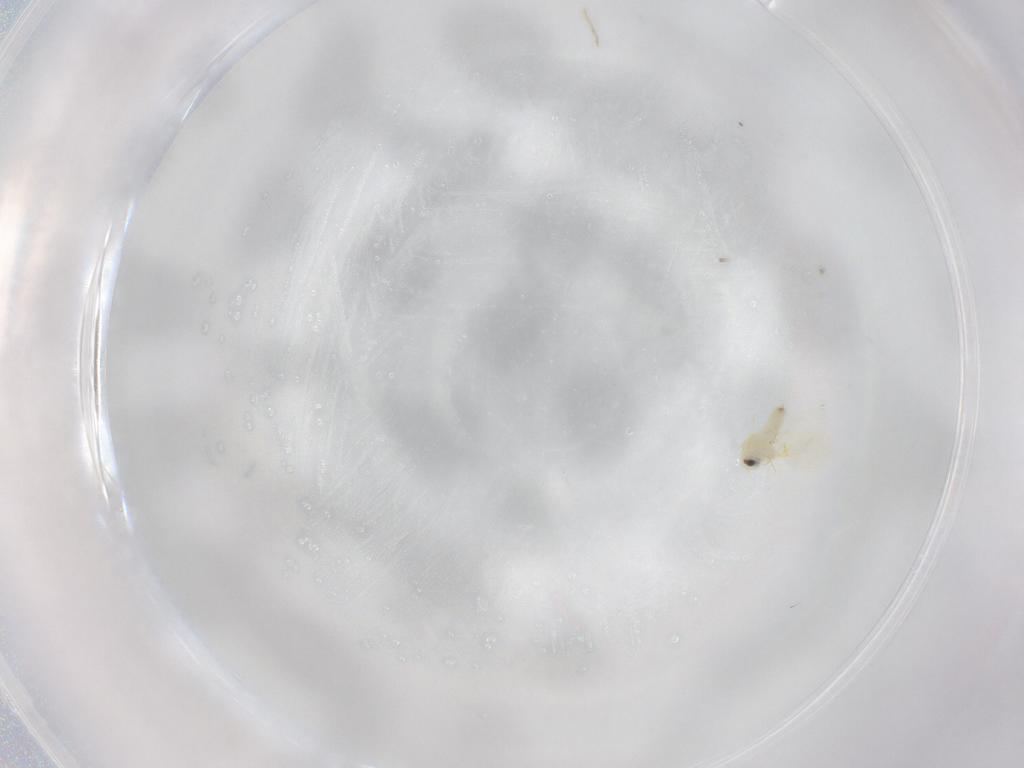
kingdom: Animalia
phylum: Arthropoda
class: Insecta
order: Hemiptera
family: Aleyrodidae
